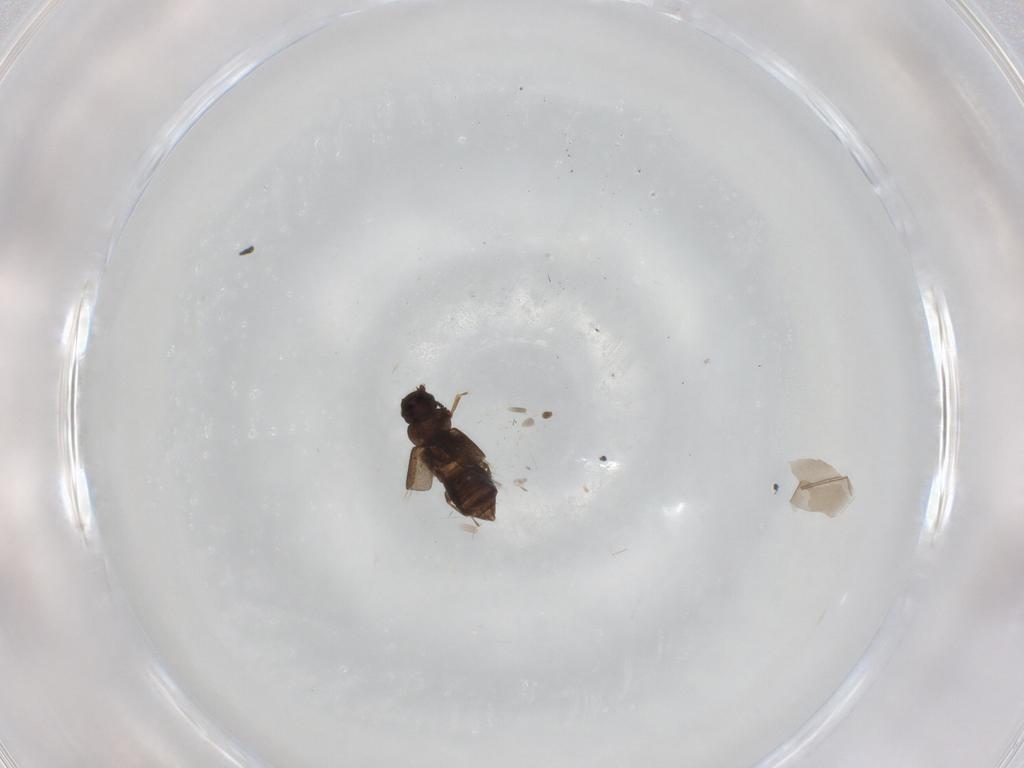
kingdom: Animalia
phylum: Arthropoda
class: Insecta
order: Coleoptera
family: Staphylinidae
